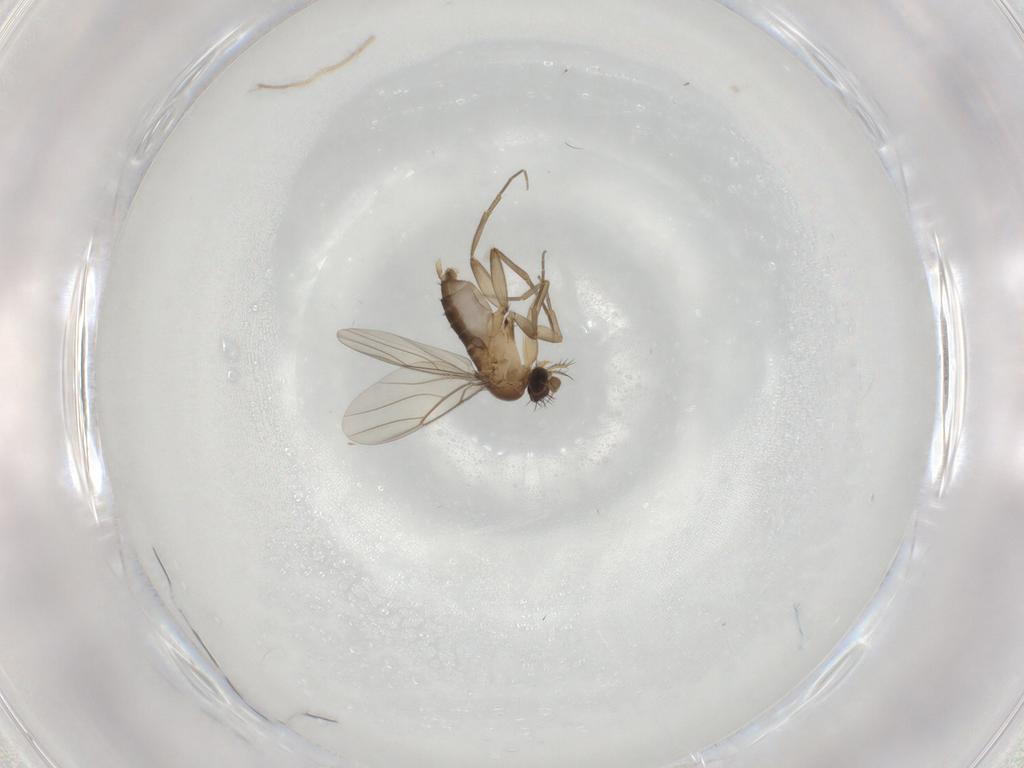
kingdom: Animalia
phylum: Arthropoda
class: Insecta
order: Diptera
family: Phoridae
